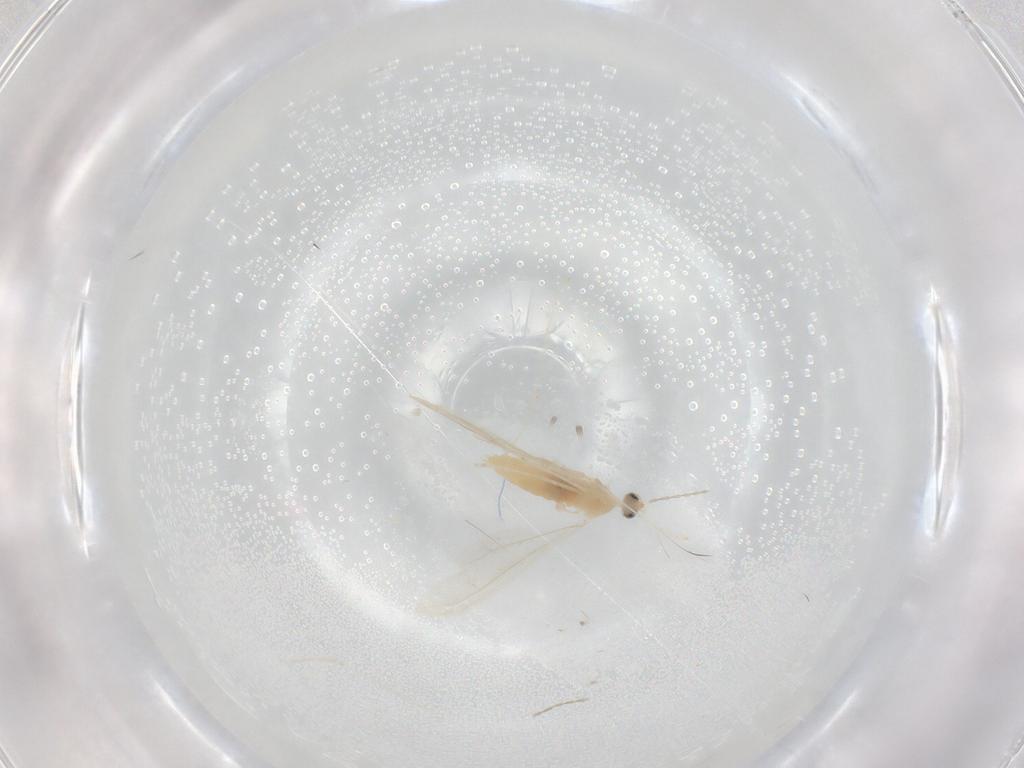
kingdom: Animalia
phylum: Arthropoda
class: Insecta
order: Diptera
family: Cecidomyiidae
